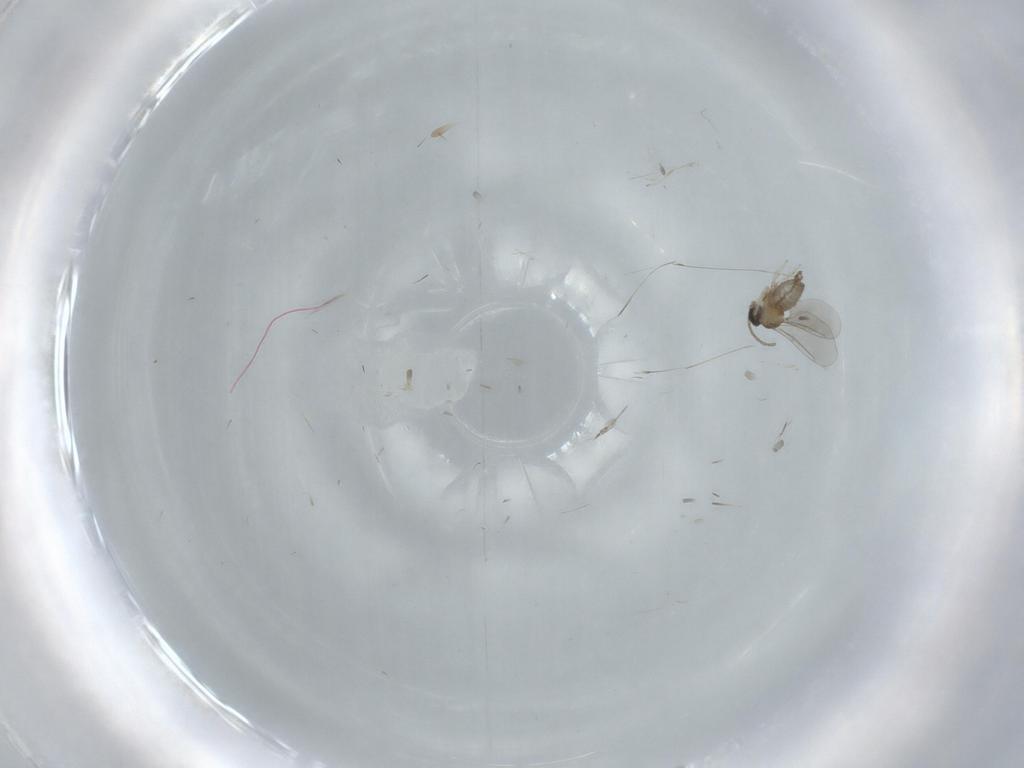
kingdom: Animalia
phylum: Arthropoda
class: Insecta
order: Diptera
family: Cecidomyiidae
